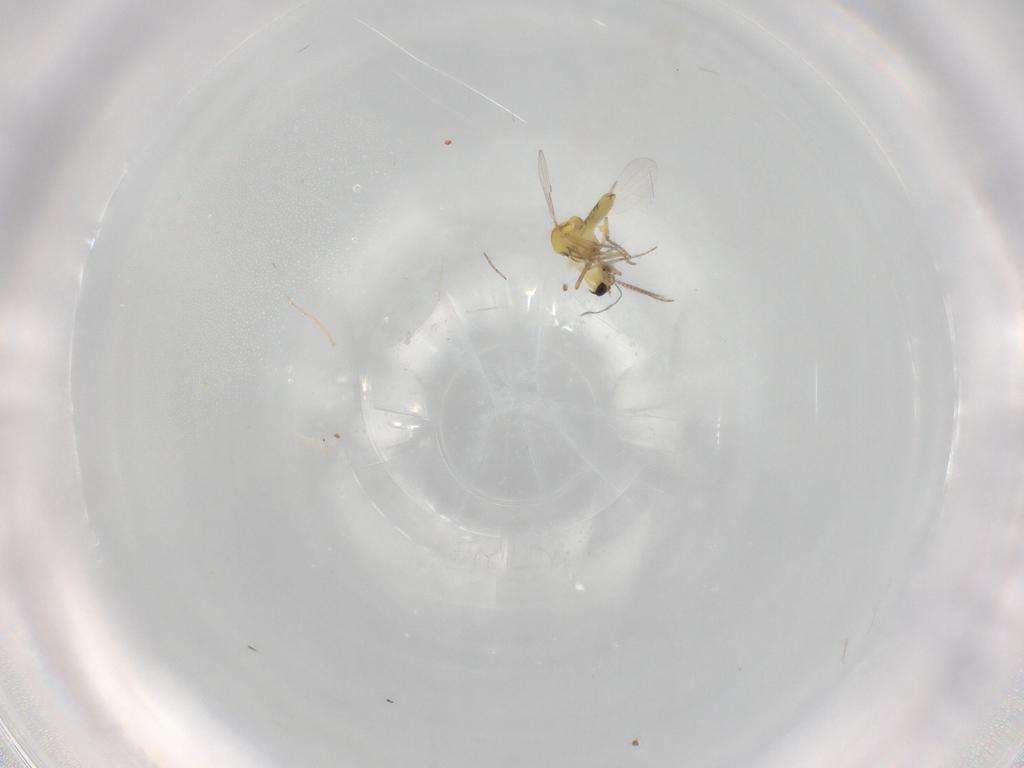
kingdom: Animalia
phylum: Arthropoda
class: Insecta
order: Diptera
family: Ceratopogonidae
